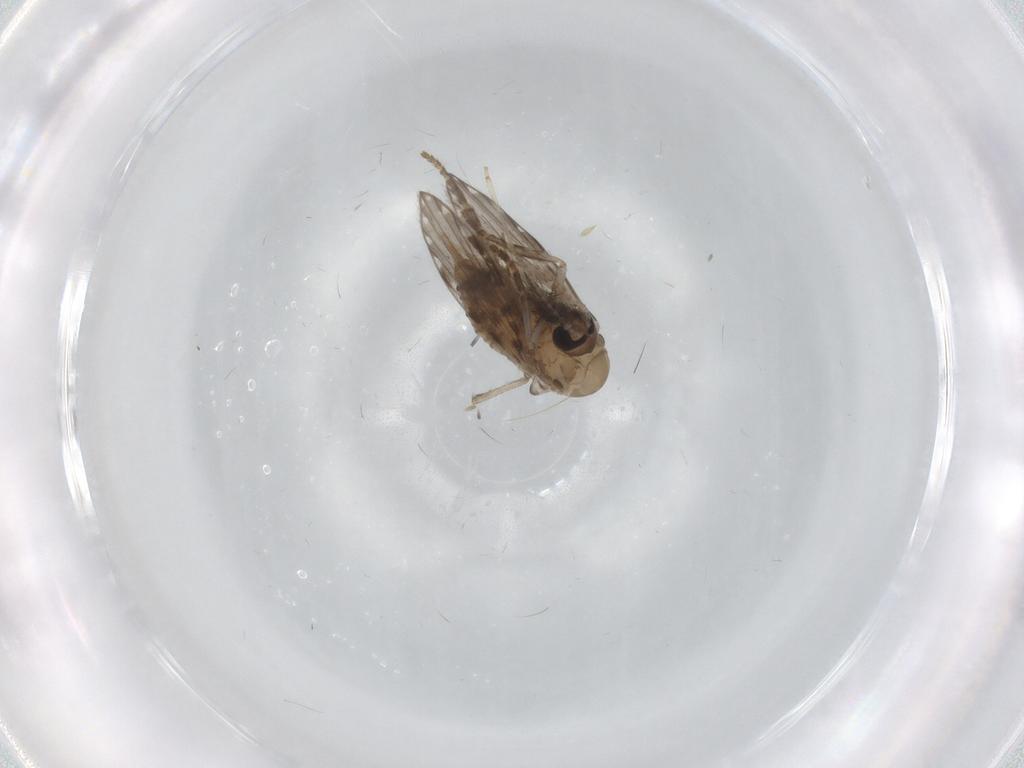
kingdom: Animalia
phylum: Arthropoda
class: Insecta
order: Diptera
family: Psychodidae
